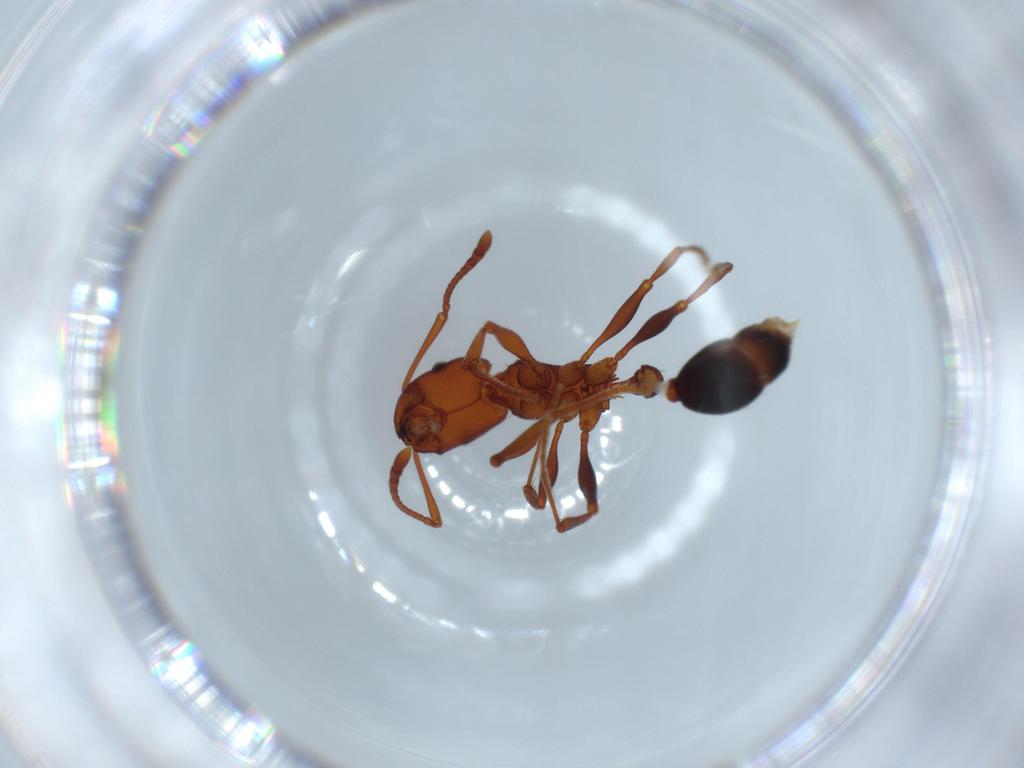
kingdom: Animalia
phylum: Arthropoda
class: Insecta
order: Hymenoptera
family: Formicidae
